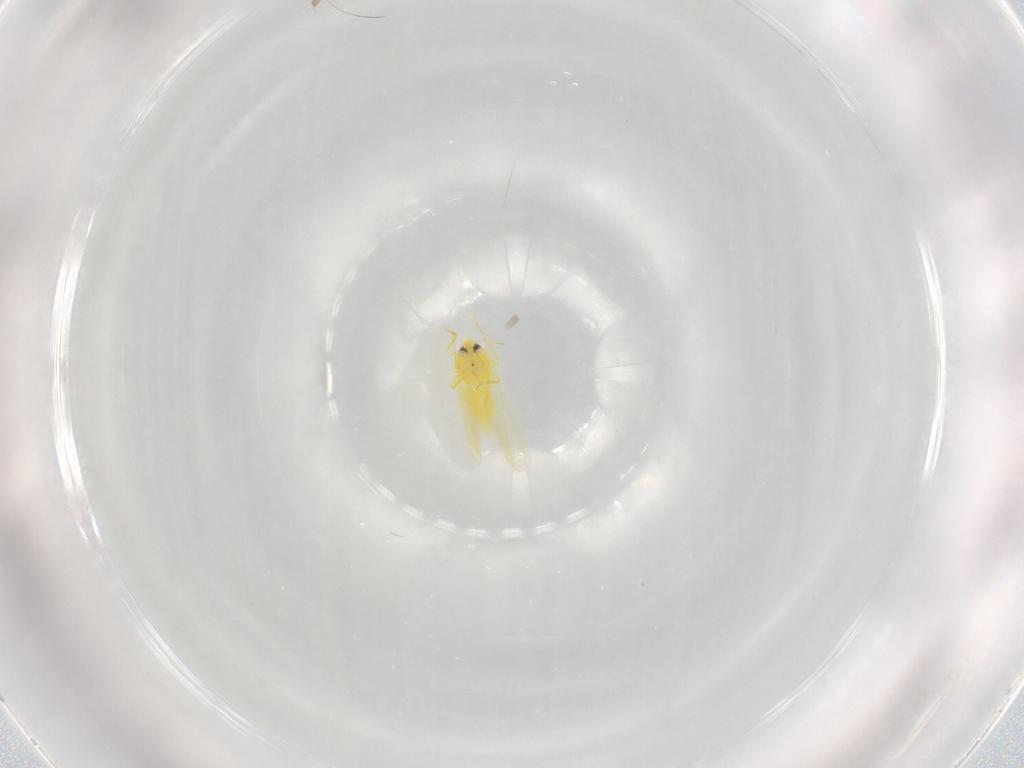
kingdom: Animalia
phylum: Arthropoda
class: Insecta
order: Hemiptera
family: Aleyrodidae
